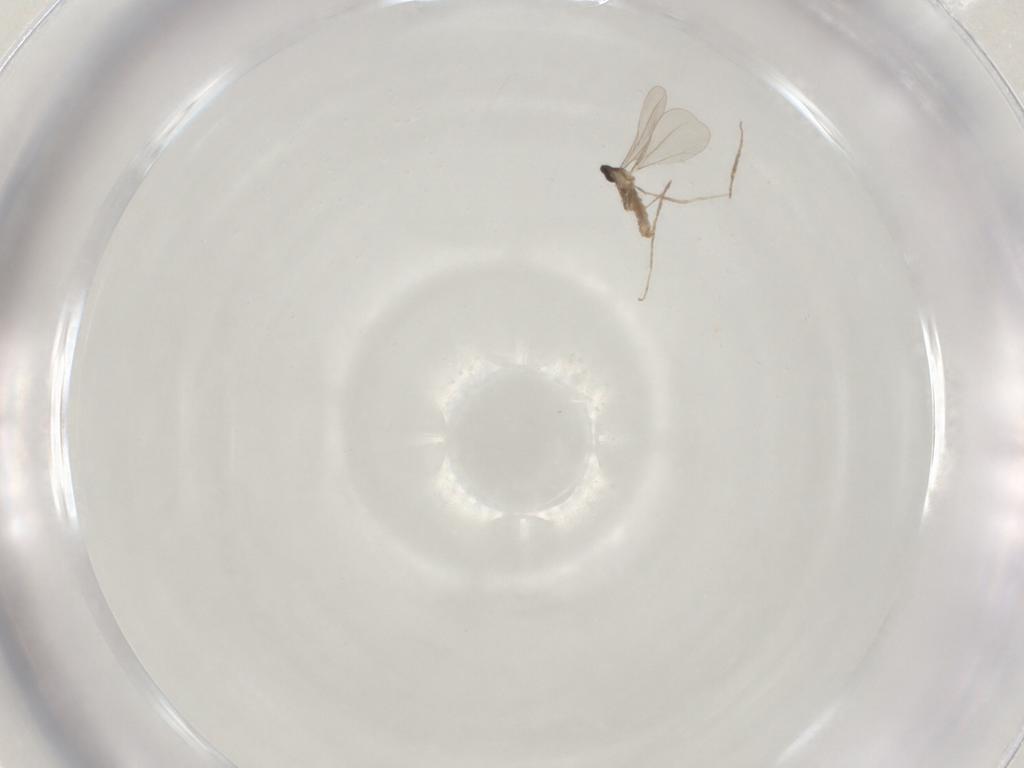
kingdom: Animalia
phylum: Arthropoda
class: Insecta
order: Diptera
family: Cecidomyiidae
